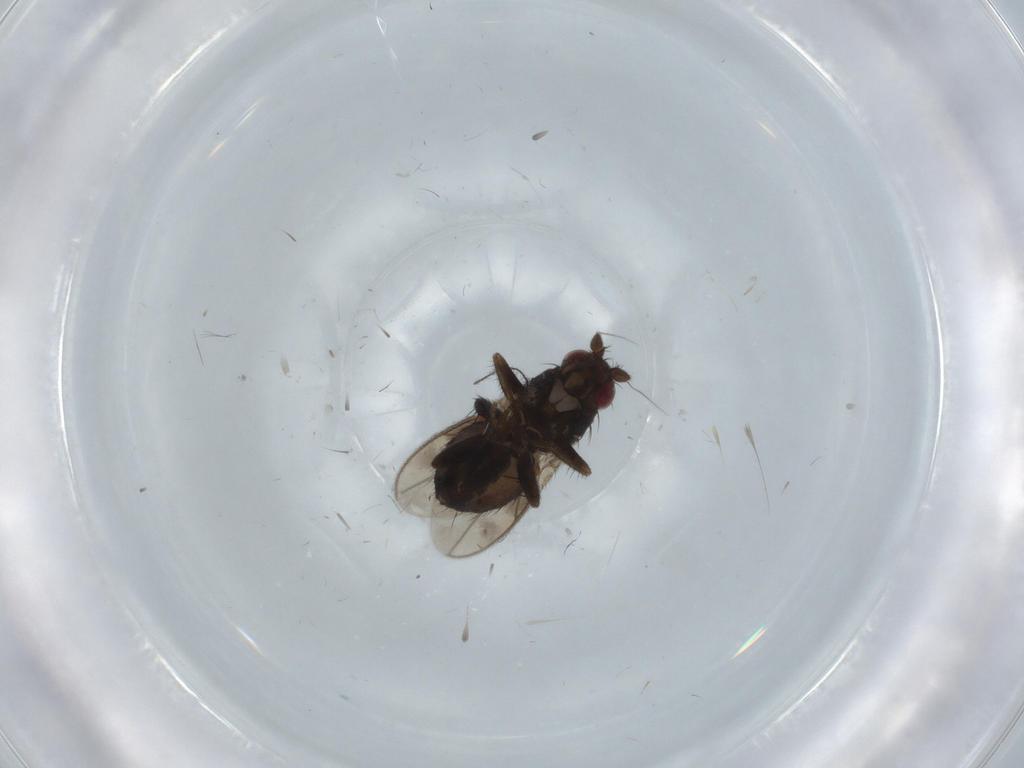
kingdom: Animalia
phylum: Arthropoda
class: Insecta
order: Diptera
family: Sphaeroceridae
